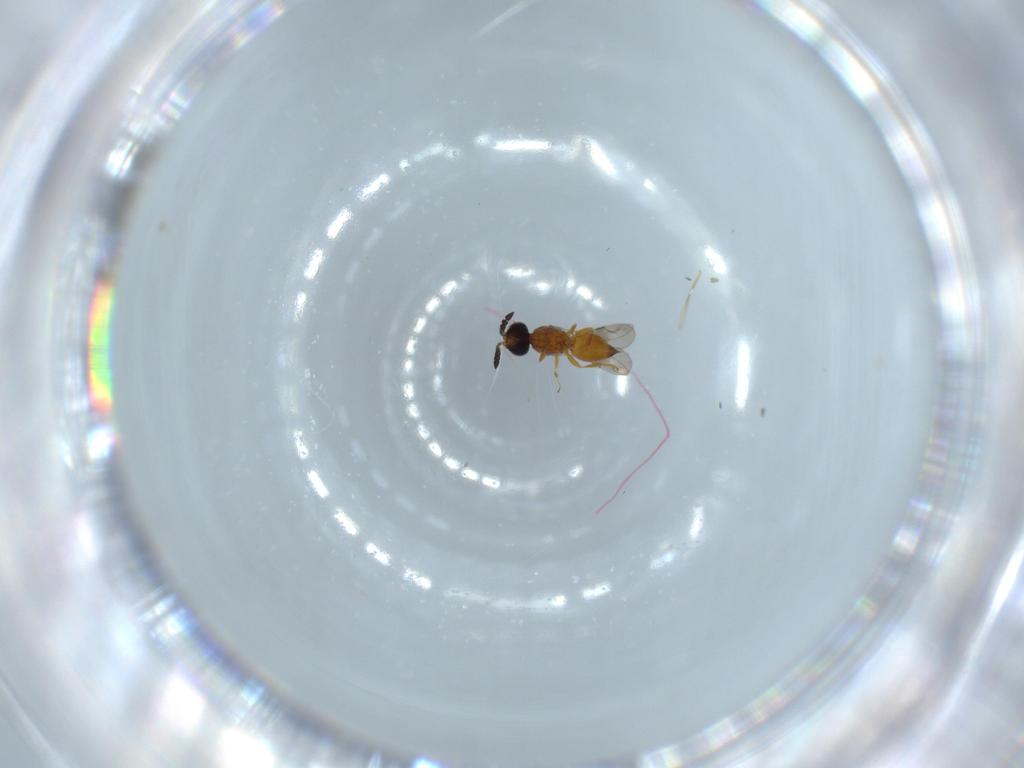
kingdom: Animalia
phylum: Arthropoda
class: Insecta
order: Hymenoptera
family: Ceraphronidae
